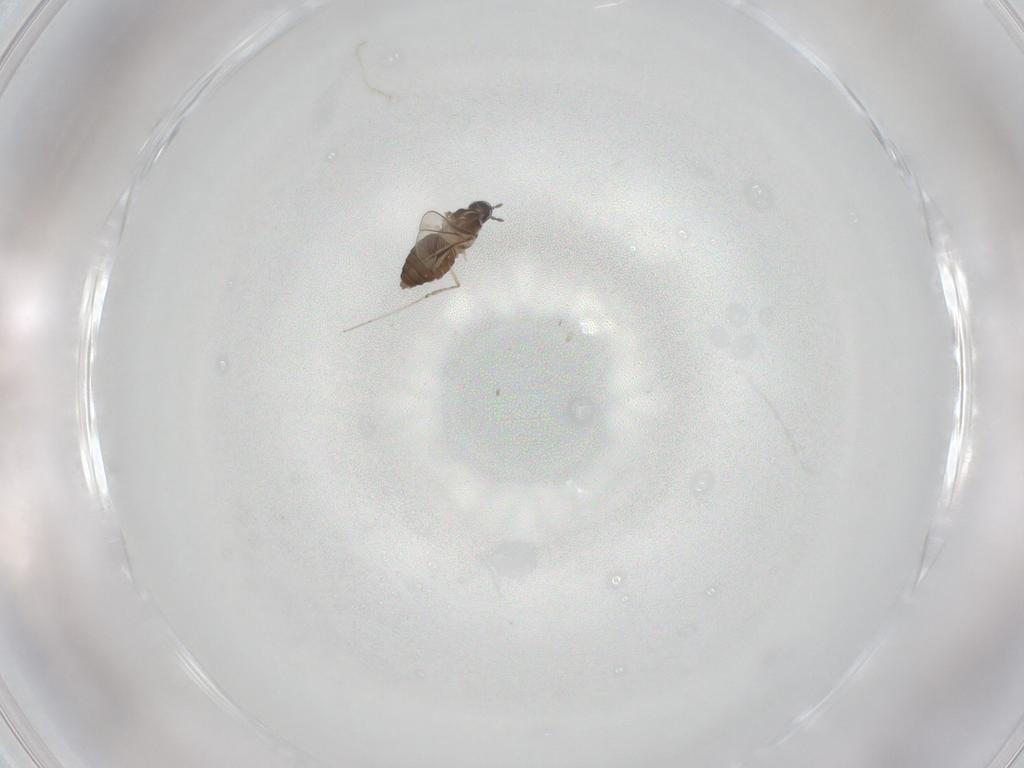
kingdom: Animalia
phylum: Arthropoda
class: Insecta
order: Diptera
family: Cecidomyiidae
